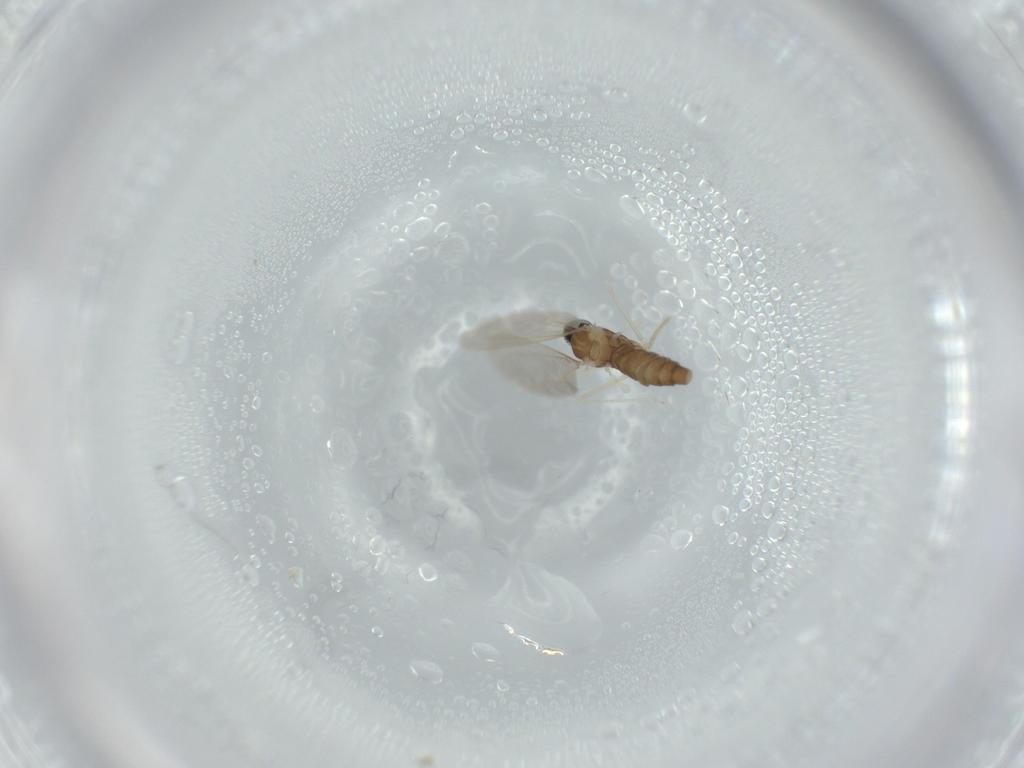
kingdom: Animalia
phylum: Arthropoda
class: Insecta
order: Diptera
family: Cecidomyiidae
